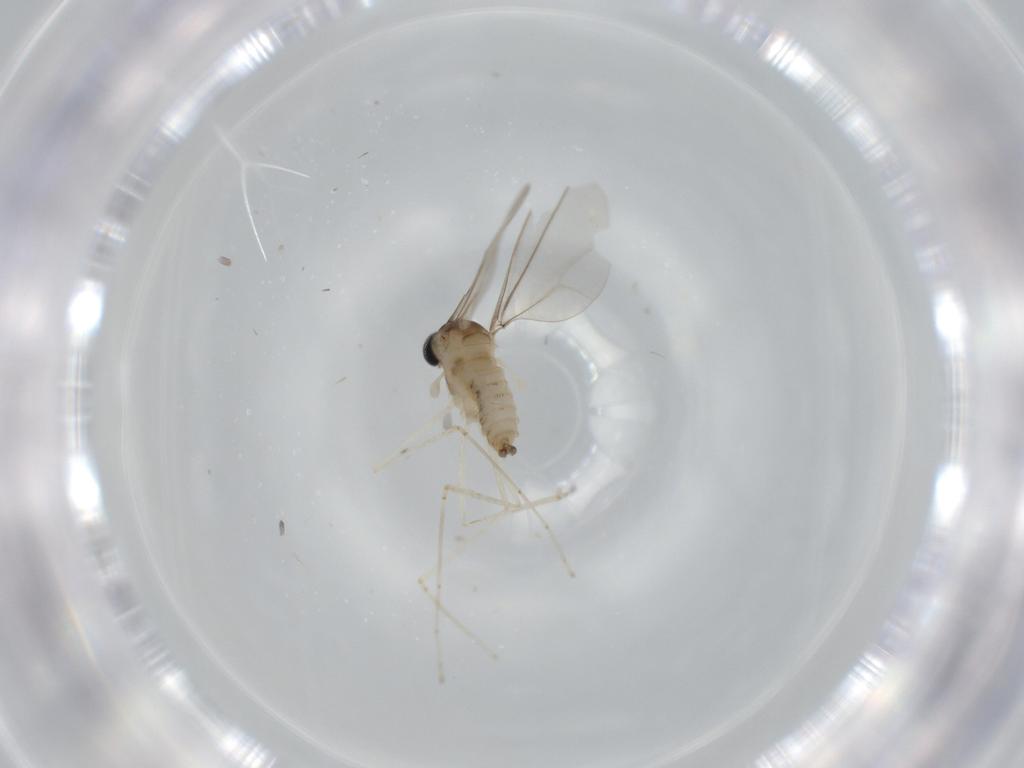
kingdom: Animalia
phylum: Arthropoda
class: Insecta
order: Diptera
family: Cecidomyiidae
